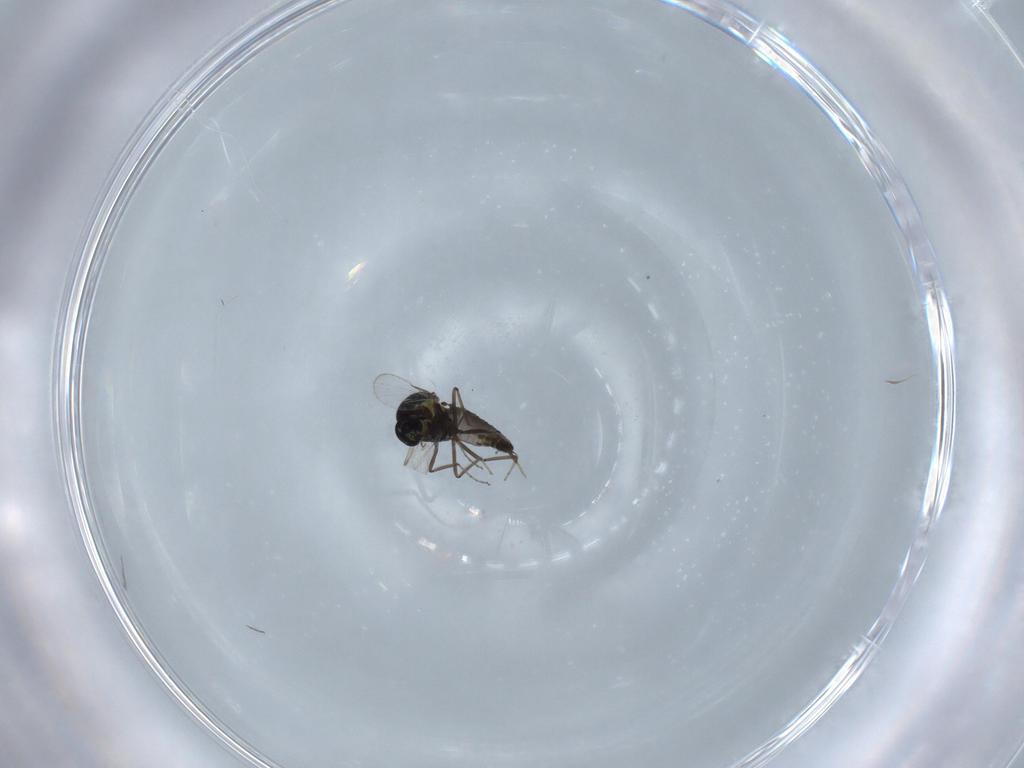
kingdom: Animalia
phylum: Arthropoda
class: Insecta
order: Diptera
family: Ceratopogonidae
